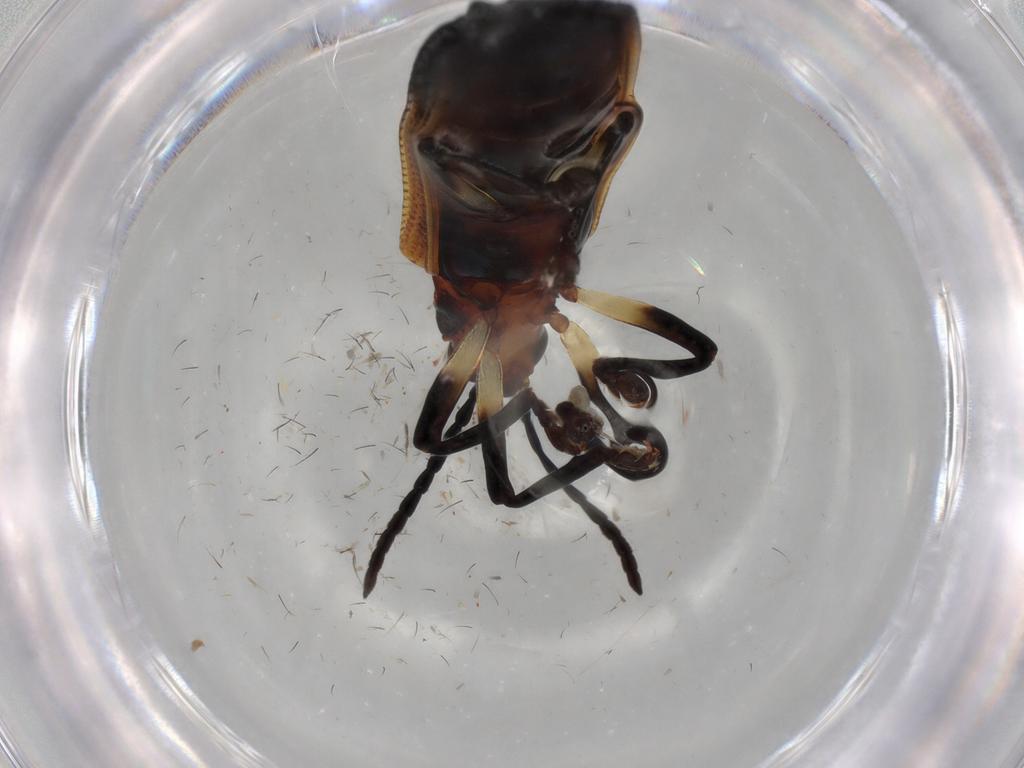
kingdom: Animalia
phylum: Arthropoda
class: Insecta
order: Coleoptera
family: Chrysomelidae
